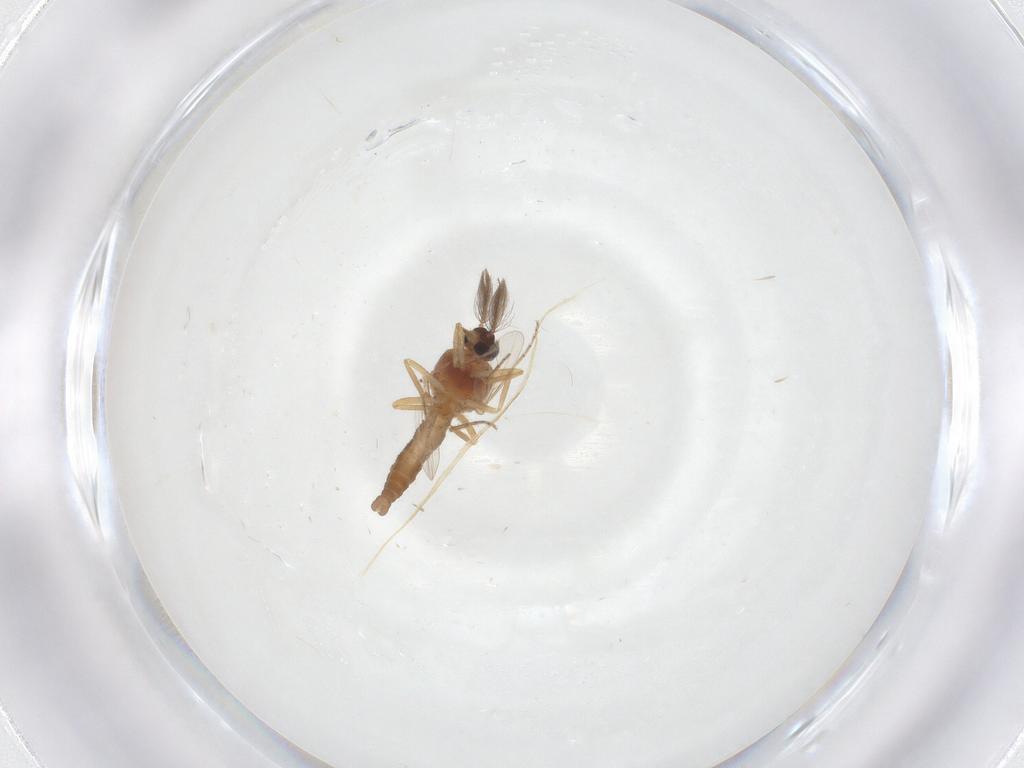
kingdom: Animalia
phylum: Arthropoda
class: Insecta
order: Diptera
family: Ceratopogonidae
